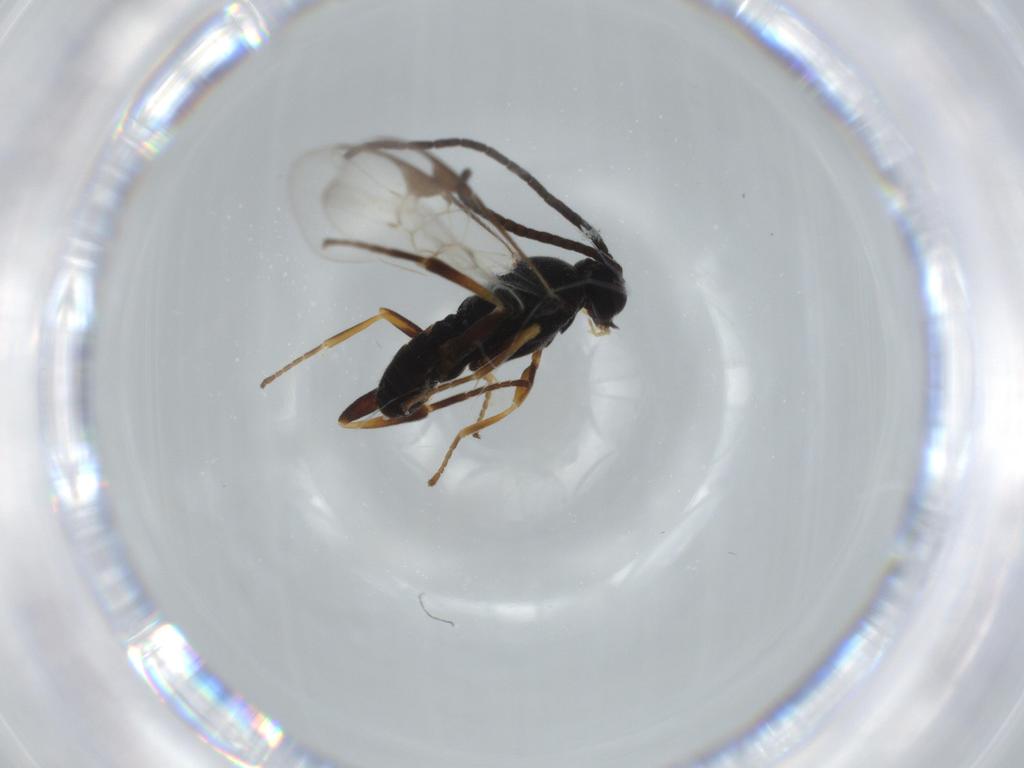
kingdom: Animalia
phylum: Arthropoda
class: Insecta
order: Hymenoptera
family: Braconidae
